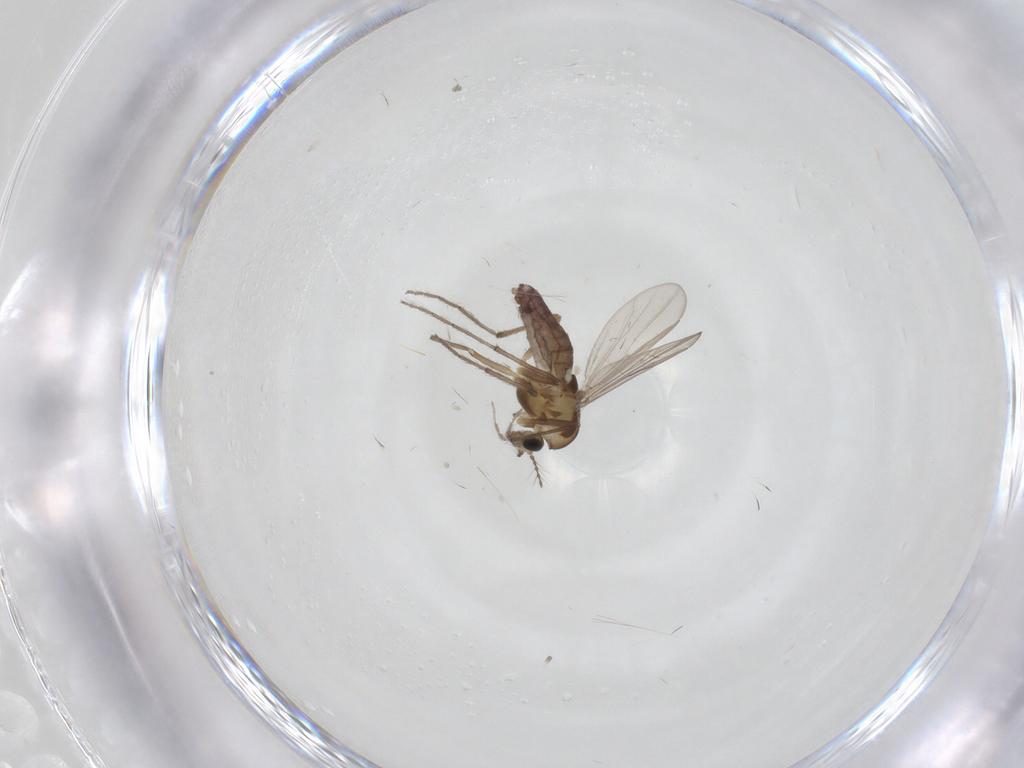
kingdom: Animalia
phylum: Arthropoda
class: Insecta
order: Diptera
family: Chironomidae
